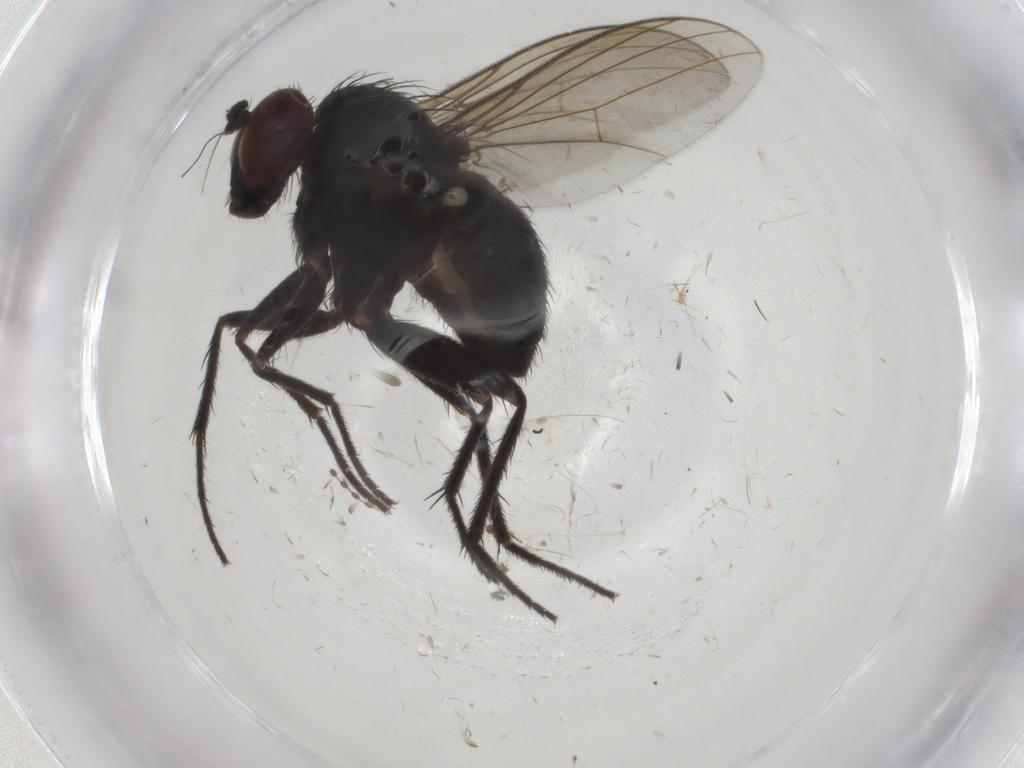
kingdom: Animalia
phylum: Arthropoda
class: Insecta
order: Diptera
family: Dolichopodidae
